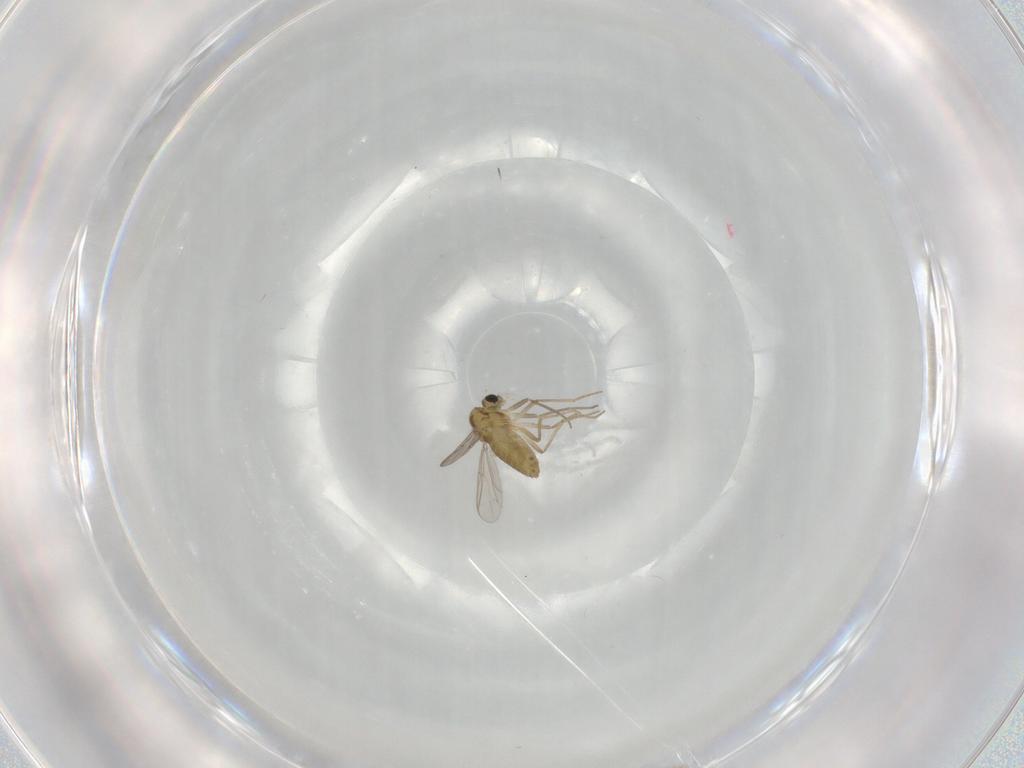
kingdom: Animalia
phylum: Arthropoda
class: Insecta
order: Diptera
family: Chironomidae
